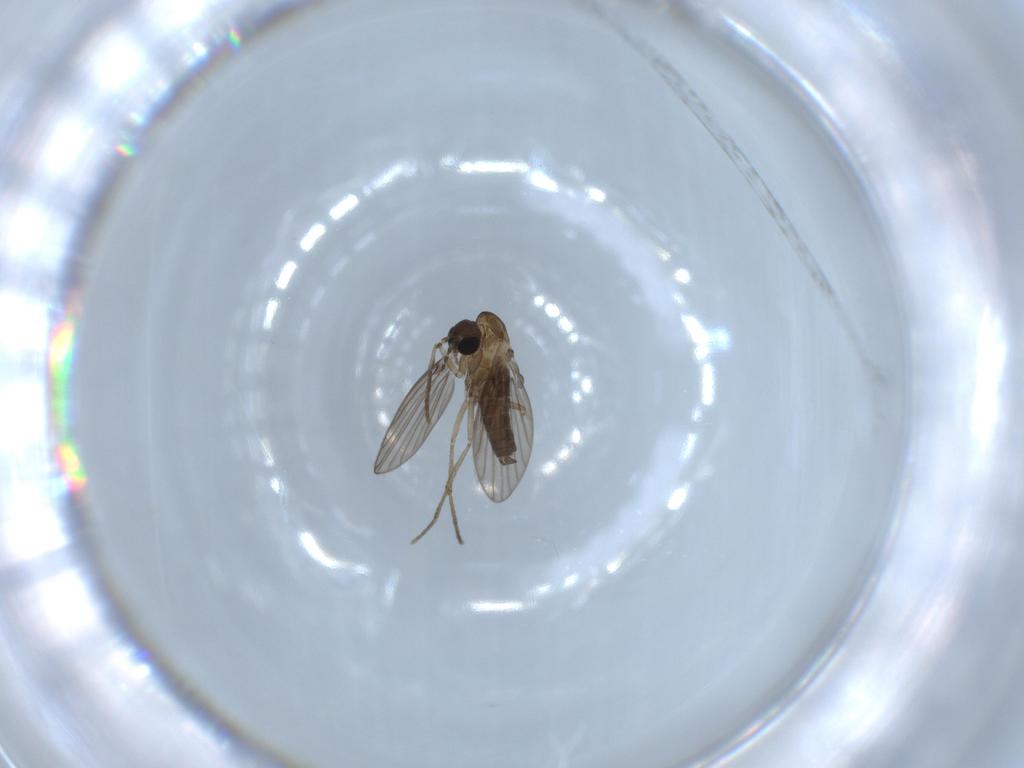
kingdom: Animalia
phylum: Arthropoda
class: Insecta
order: Diptera
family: Psychodidae
